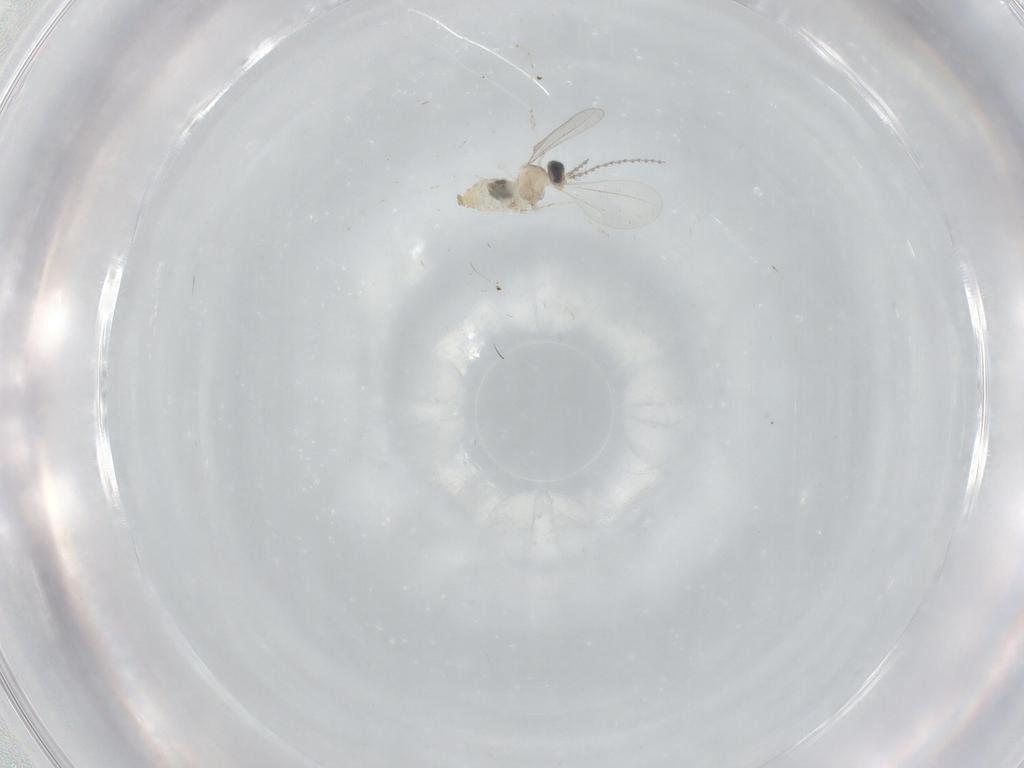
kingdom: Animalia
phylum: Arthropoda
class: Insecta
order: Diptera
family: Cecidomyiidae
